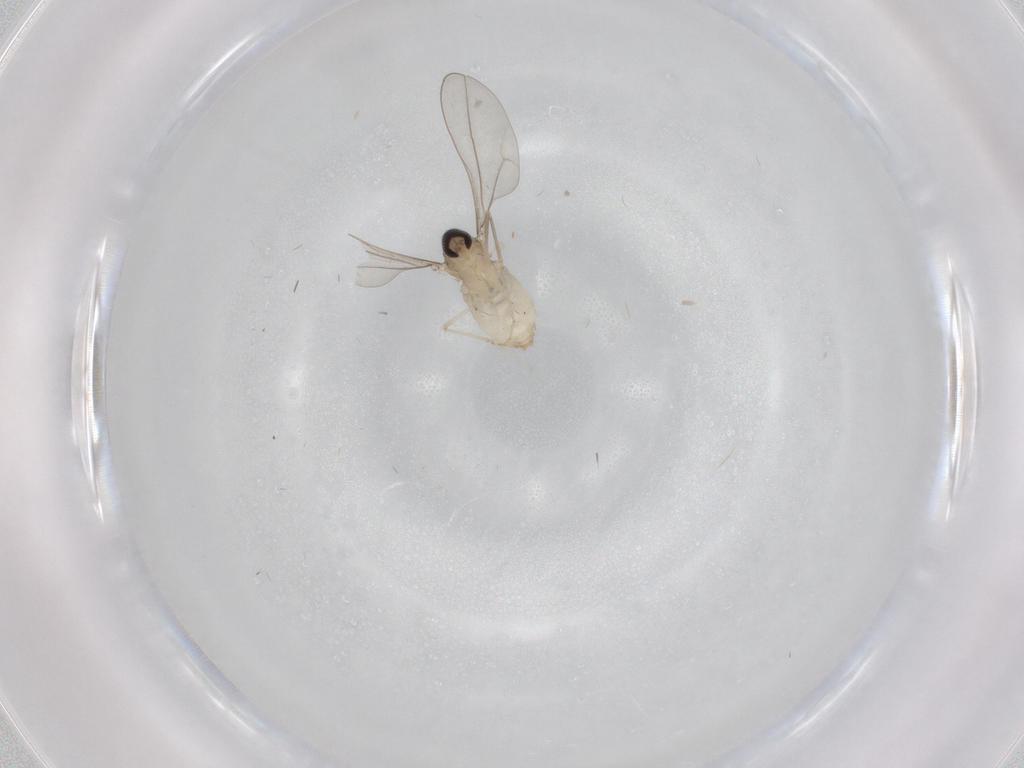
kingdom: Animalia
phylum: Arthropoda
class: Insecta
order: Diptera
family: Cecidomyiidae
